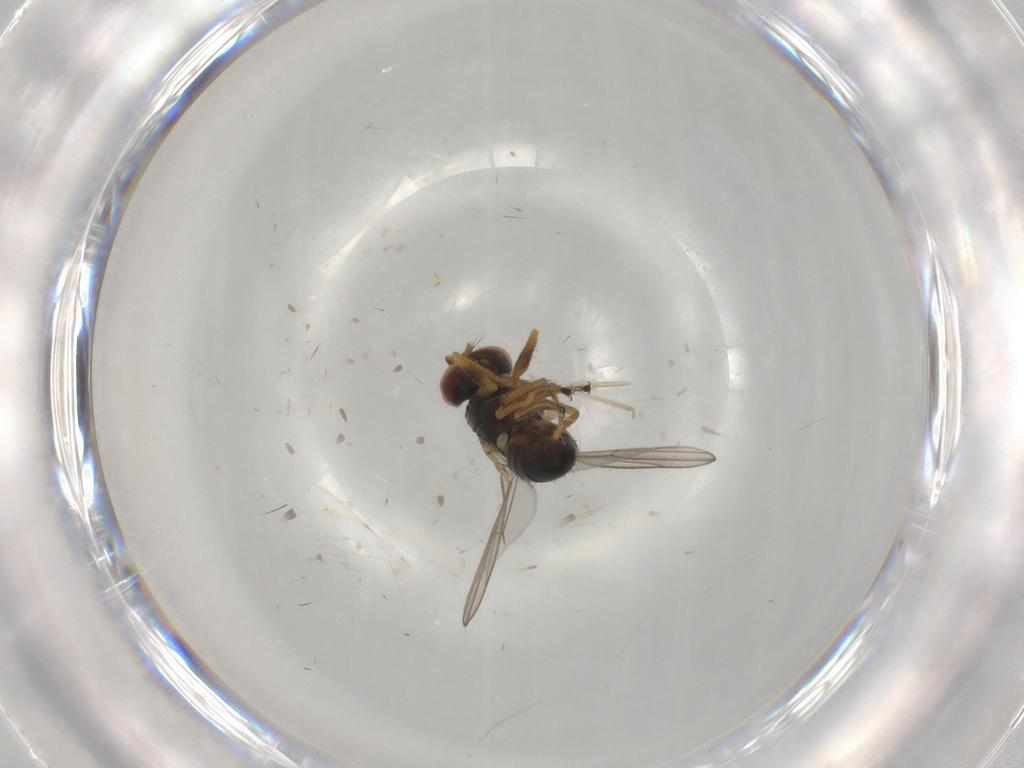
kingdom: Animalia
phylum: Arthropoda
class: Insecta
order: Diptera
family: Ephydridae
